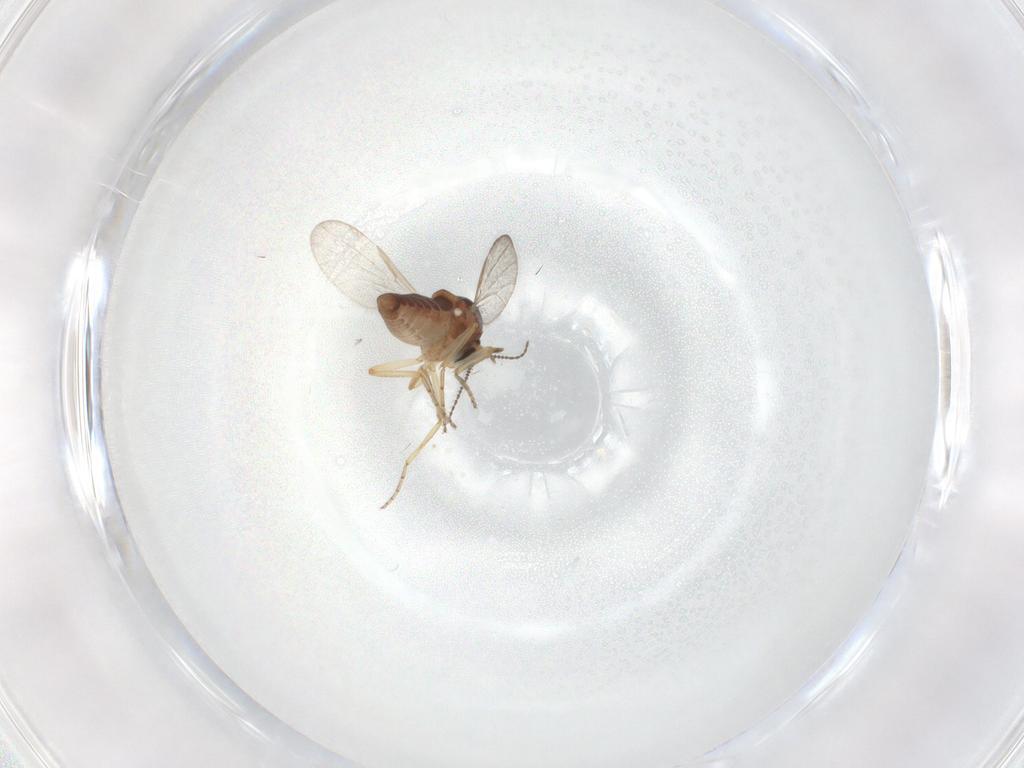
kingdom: Animalia
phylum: Arthropoda
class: Insecta
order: Diptera
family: Ceratopogonidae
